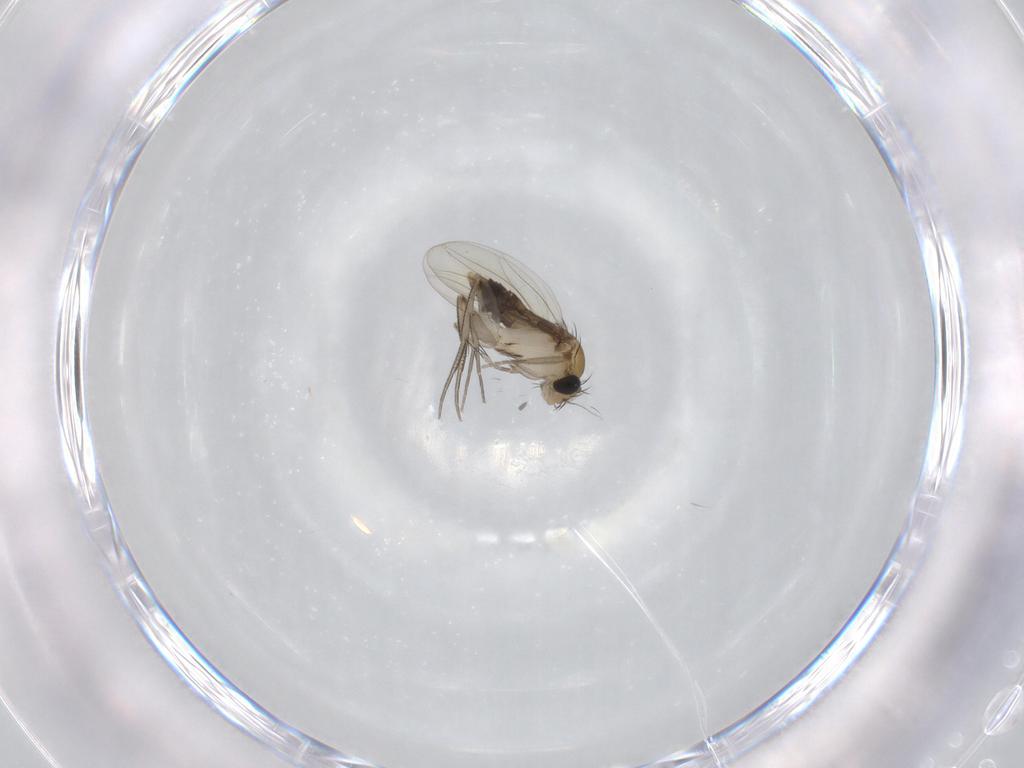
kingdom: Animalia
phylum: Arthropoda
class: Insecta
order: Diptera
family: Phoridae
